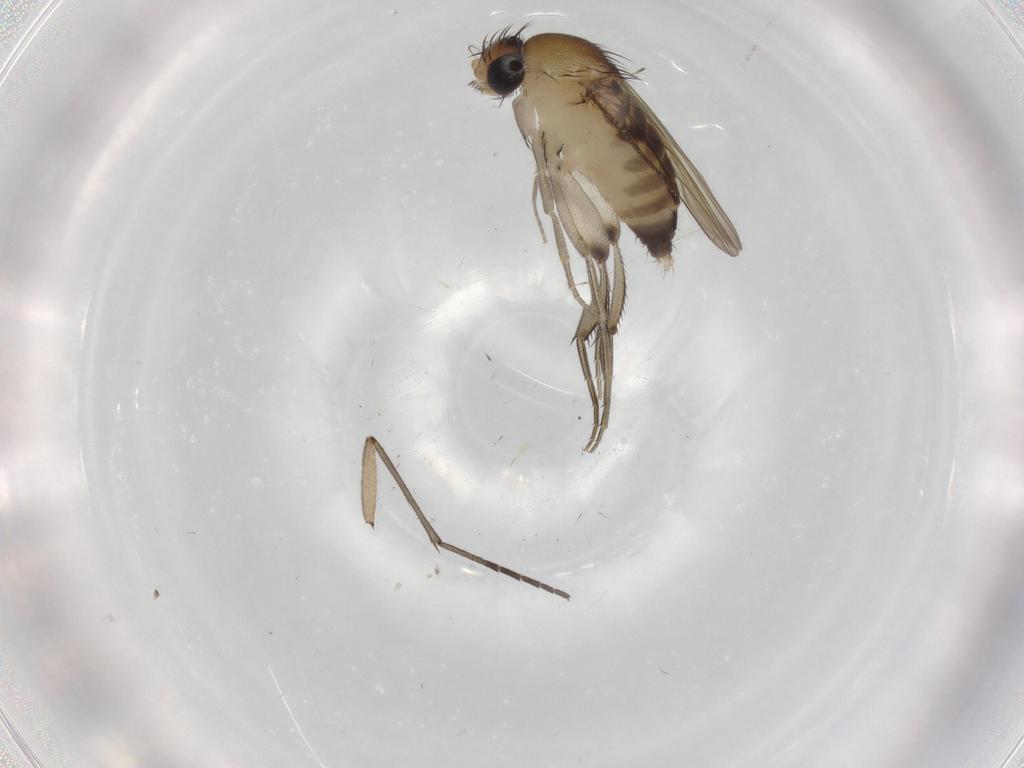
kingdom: Animalia
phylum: Arthropoda
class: Insecta
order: Diptera
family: Sciaridae
